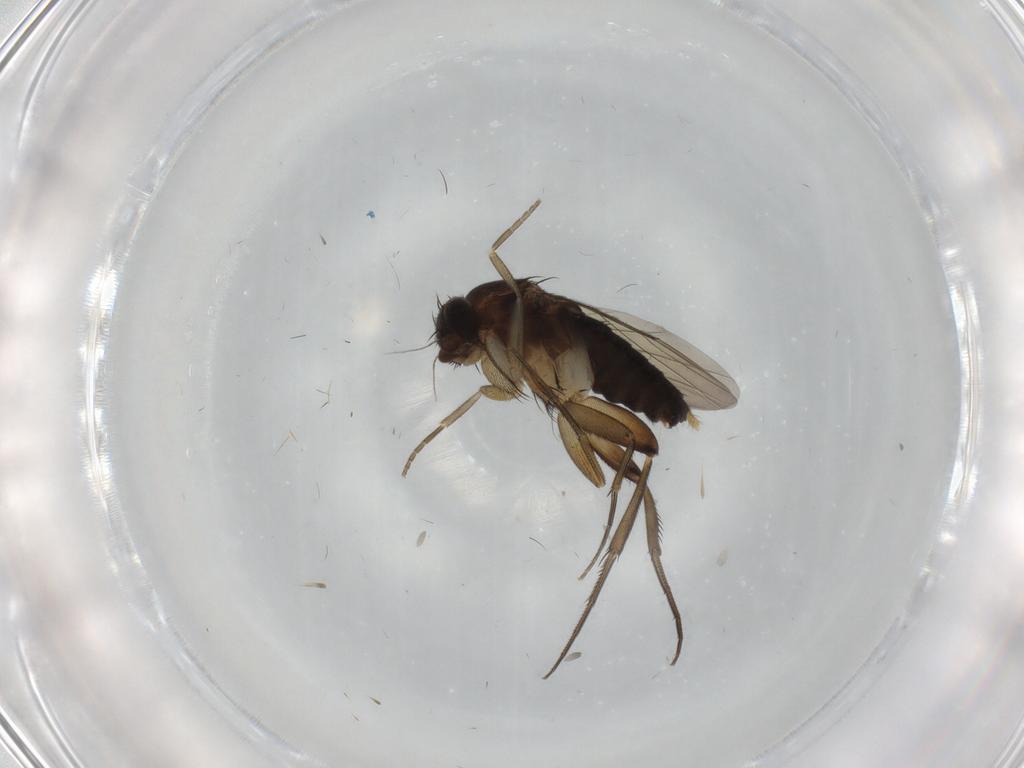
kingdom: Animalia
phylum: Arthropoda
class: Insecta
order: Diptera
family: Phoridae
